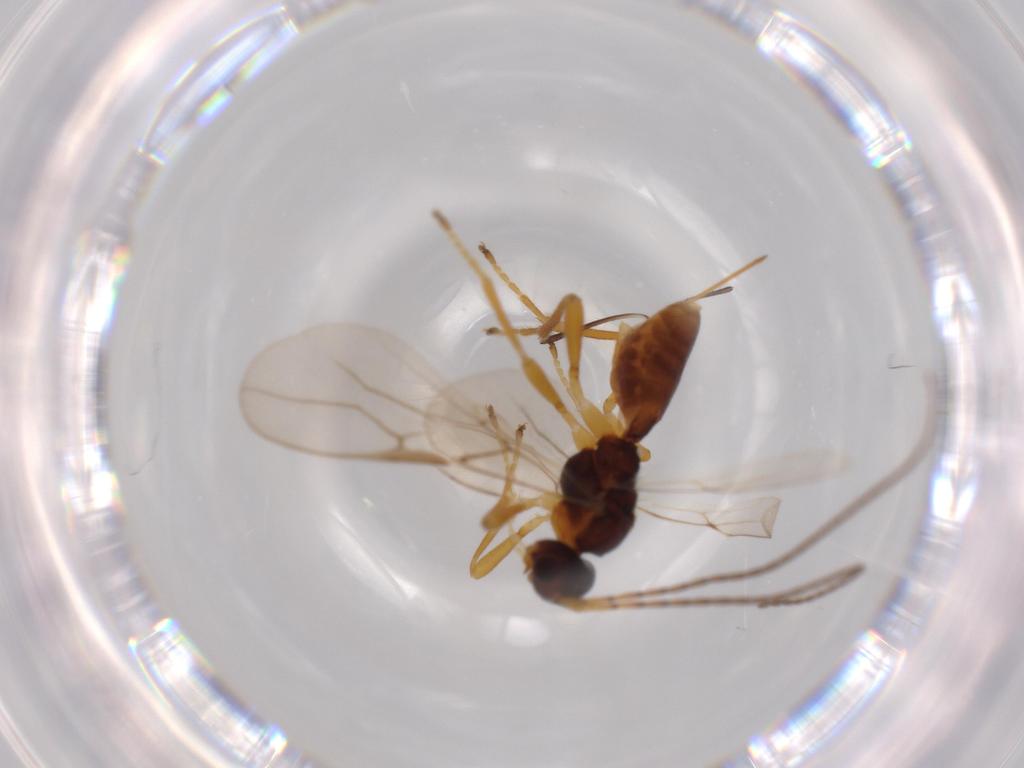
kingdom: Animalia
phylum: Arthropoda
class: Insecta
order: Hymenoptera
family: Braconidae
